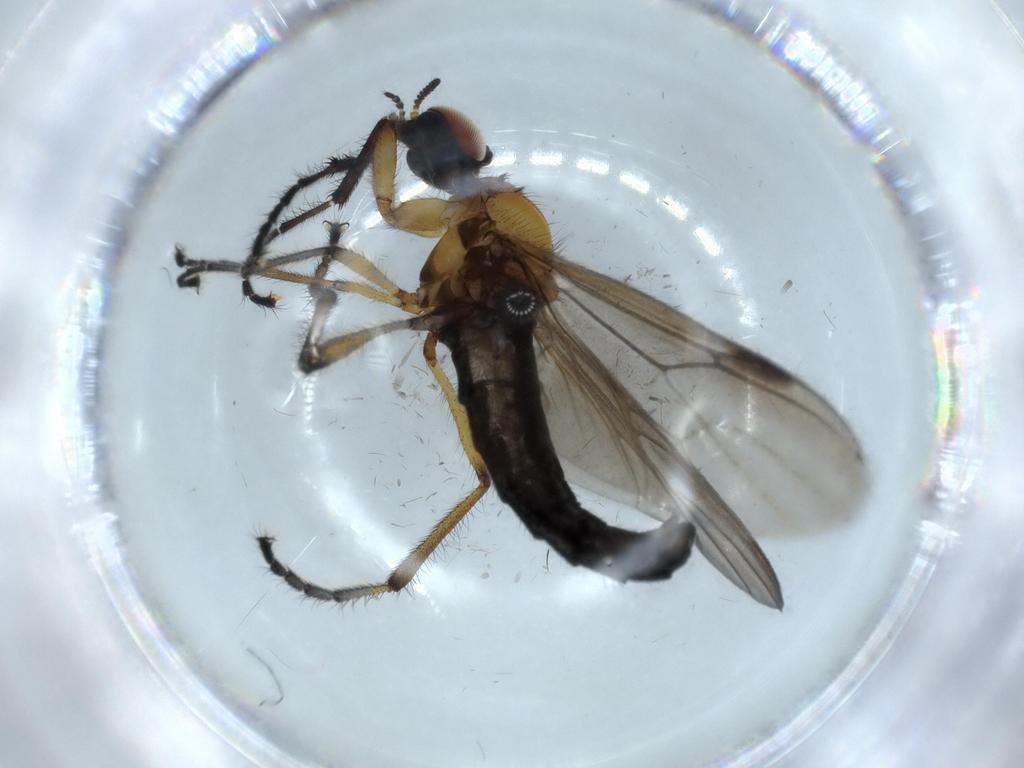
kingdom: Animalia
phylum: Arthropoda
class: Insecta
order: Diptera
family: Bibionidae
